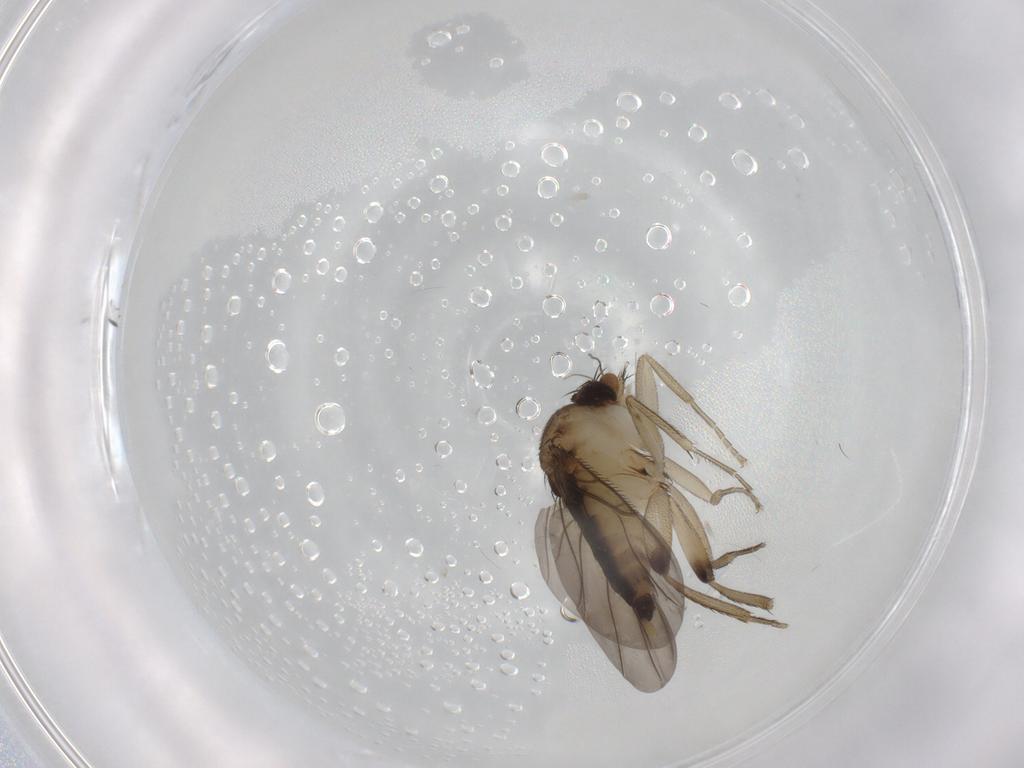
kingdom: Animalia
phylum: Arthropoda
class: Insecta
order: Diptera
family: Phoridae
